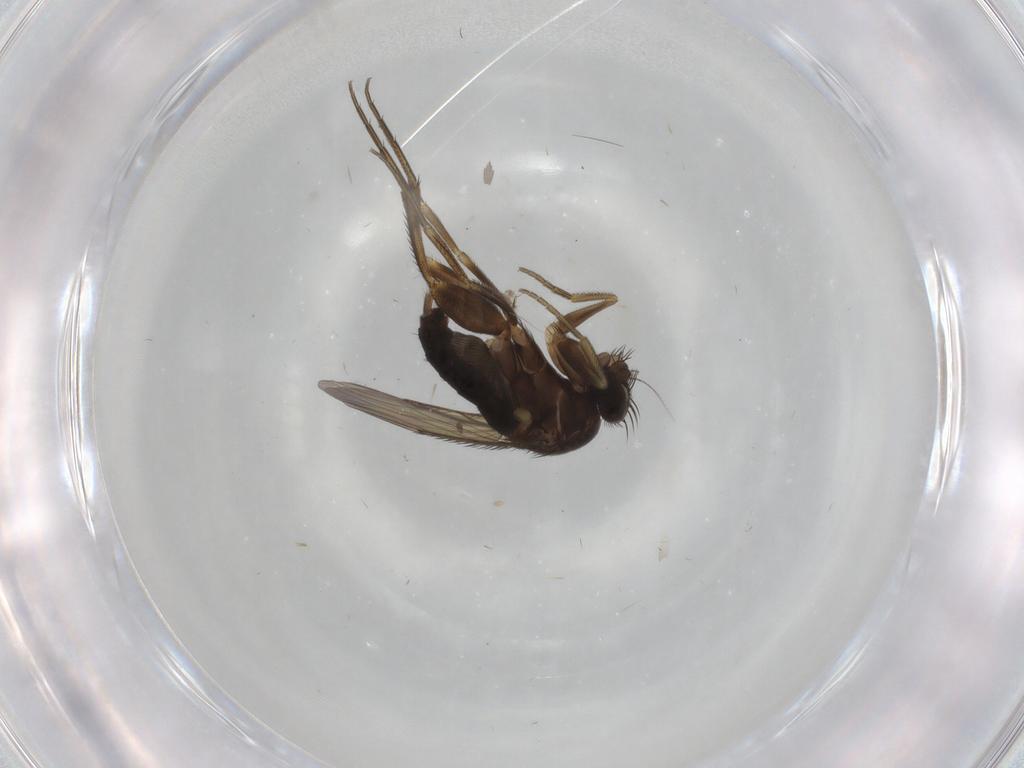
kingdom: Animalia
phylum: Arthropoda
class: Insecta
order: Diptera
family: Phoridae
